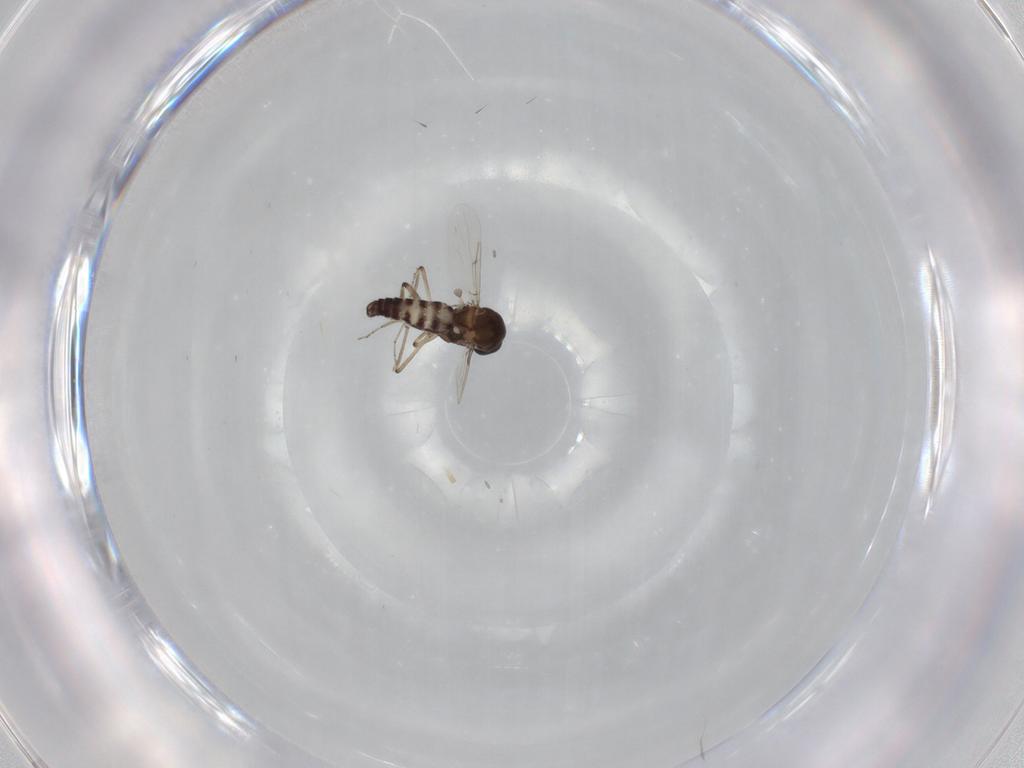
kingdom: Animalia
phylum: Arthropoda
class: Insecta
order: Diptera
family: Ceratopogonidae
